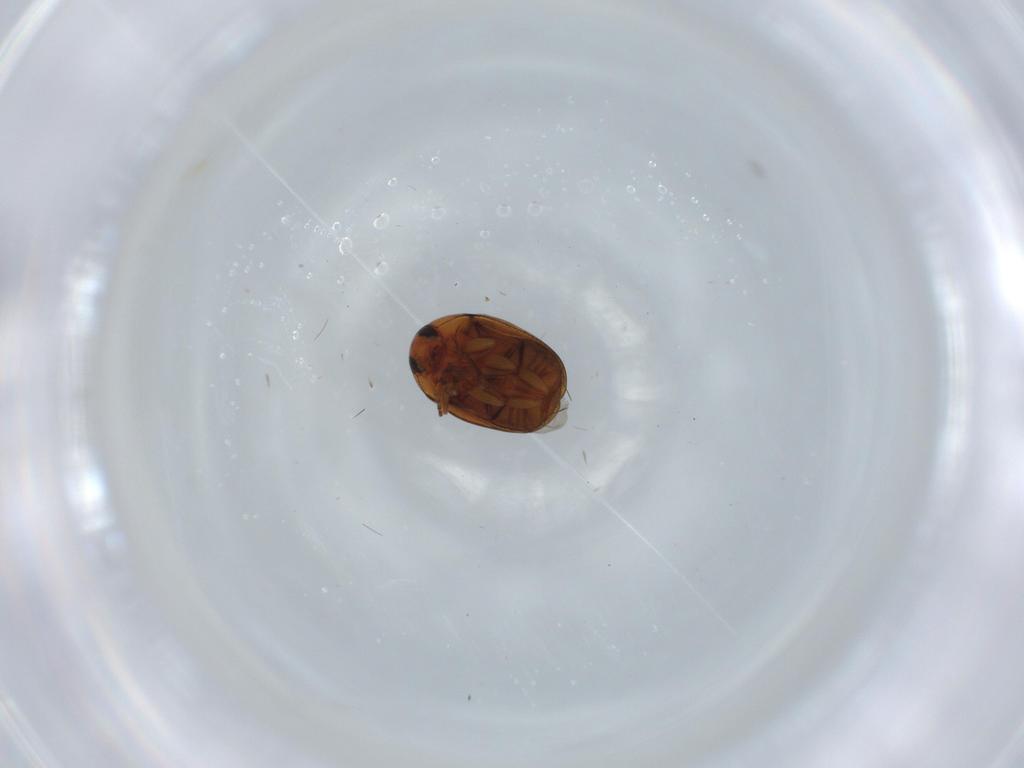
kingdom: Animalia
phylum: Arthropoda
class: Insecta
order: Coleoptera
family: Chrysomelidae
